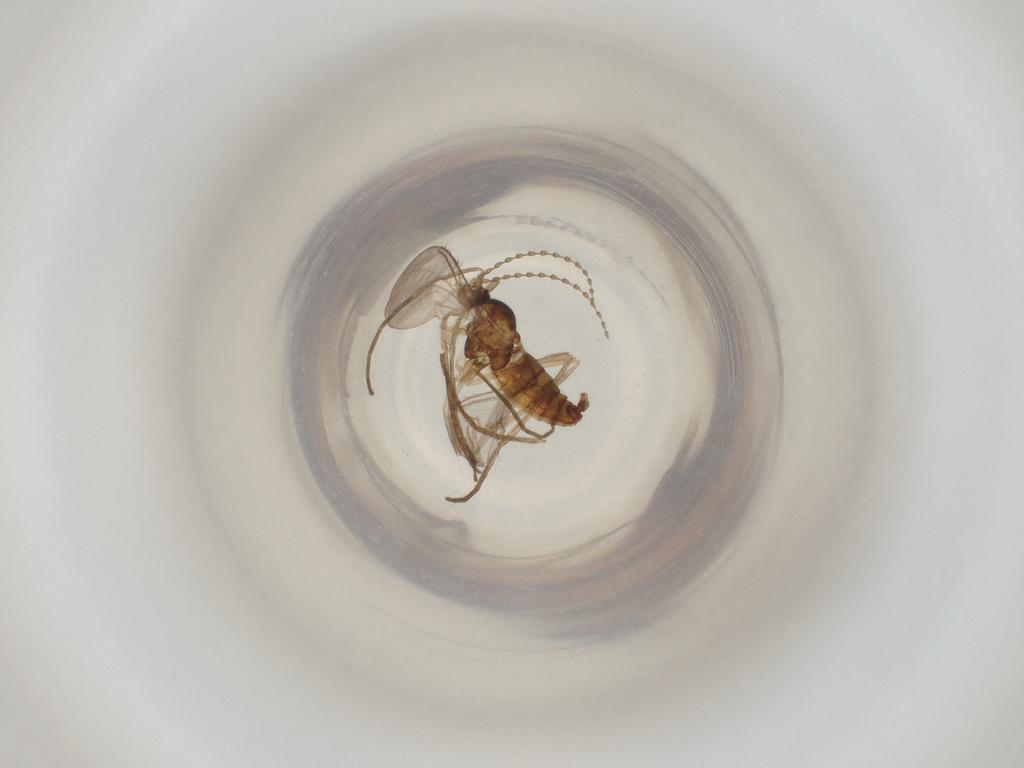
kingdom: Animalia
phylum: Arthropoda
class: Insecta
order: Diptera
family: Cecidomyiidae
